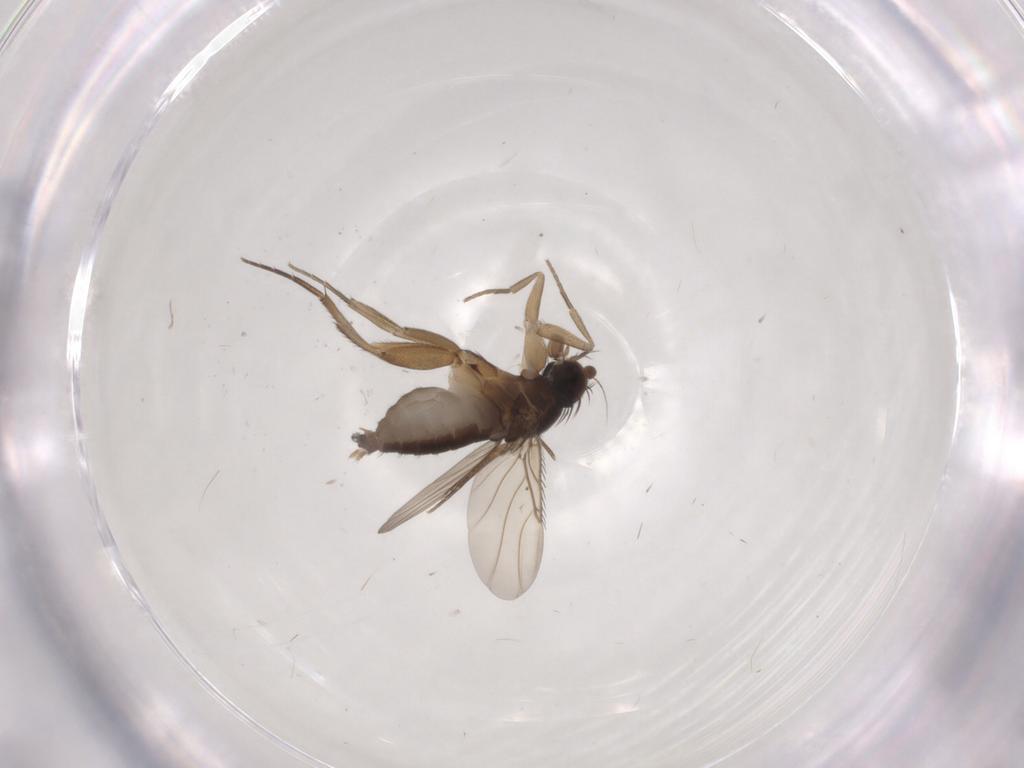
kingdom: Animalia
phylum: Arthropoda
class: Insecta
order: Diptera
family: Phoridae
